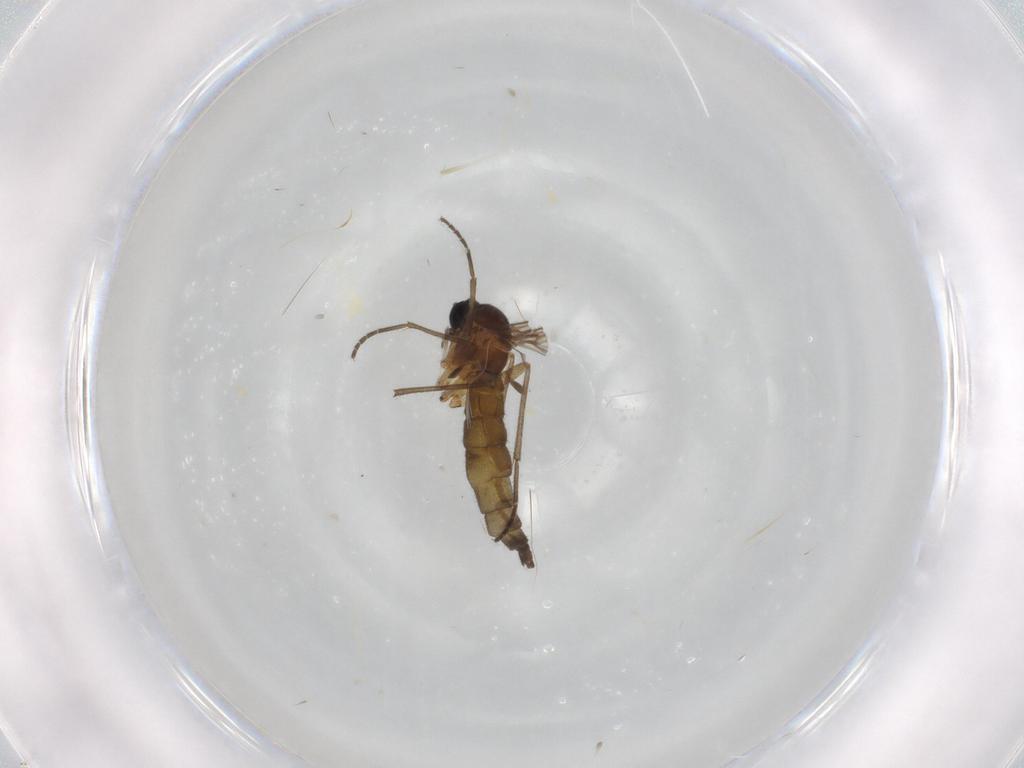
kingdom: Animalia
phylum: Arthropoda
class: Insecta
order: Diptera
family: Sciaridae
